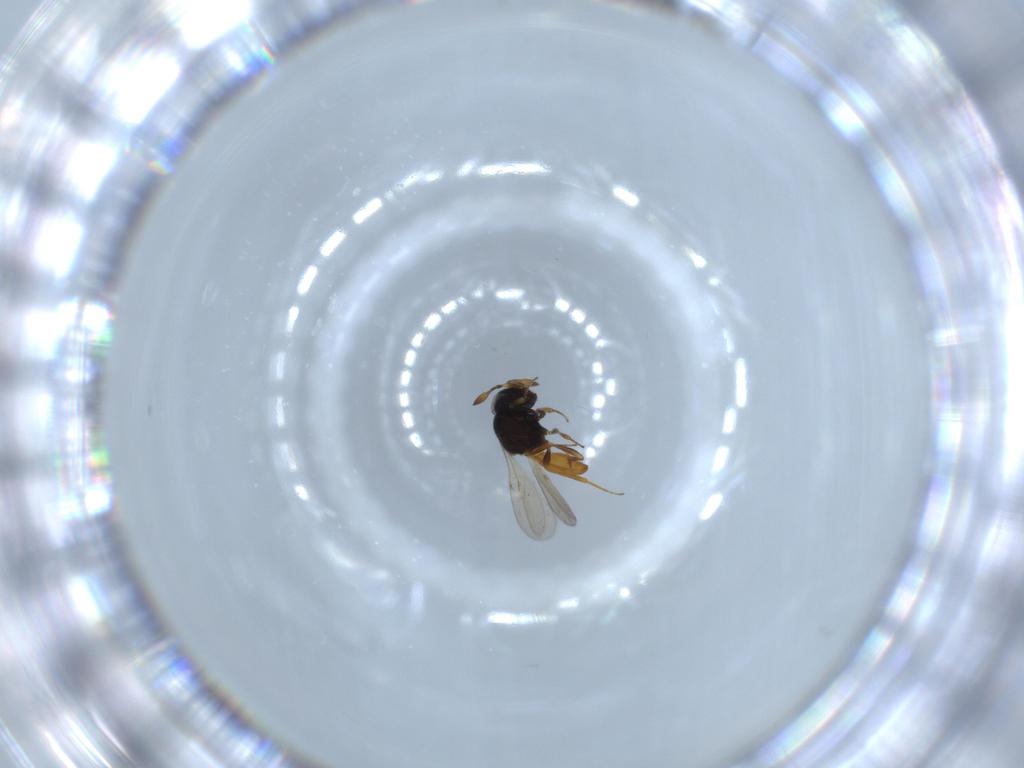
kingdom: Animalia
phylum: Arthropoda
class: Insecta
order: Hymenoptera
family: Scelionidae
